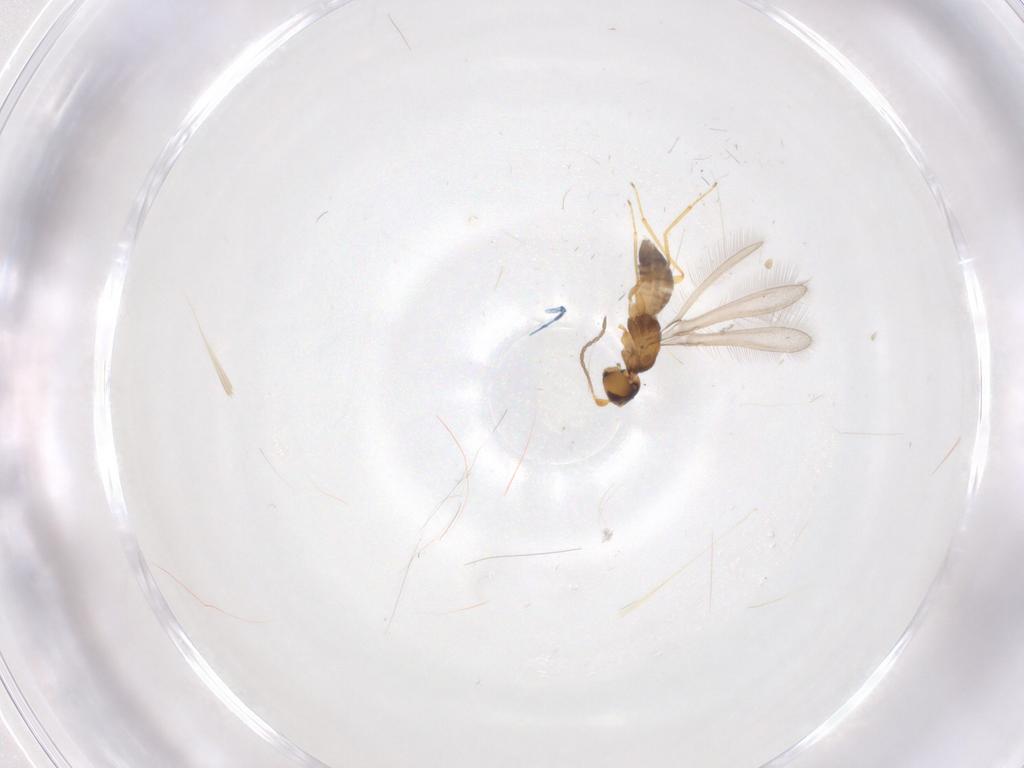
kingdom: Animalia
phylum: Arthropoda
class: Insecta
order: Hymenoptera
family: Mymaridae
